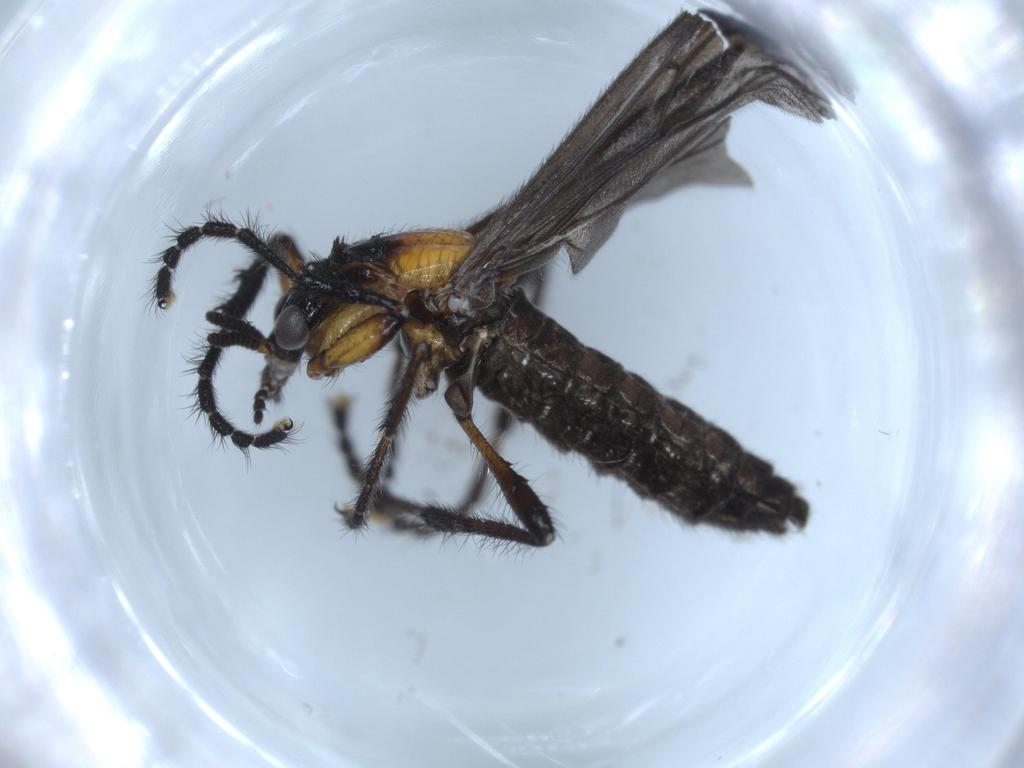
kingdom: Animalia
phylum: Arthropoda
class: Insecta
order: Diptera
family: Bibionidae
